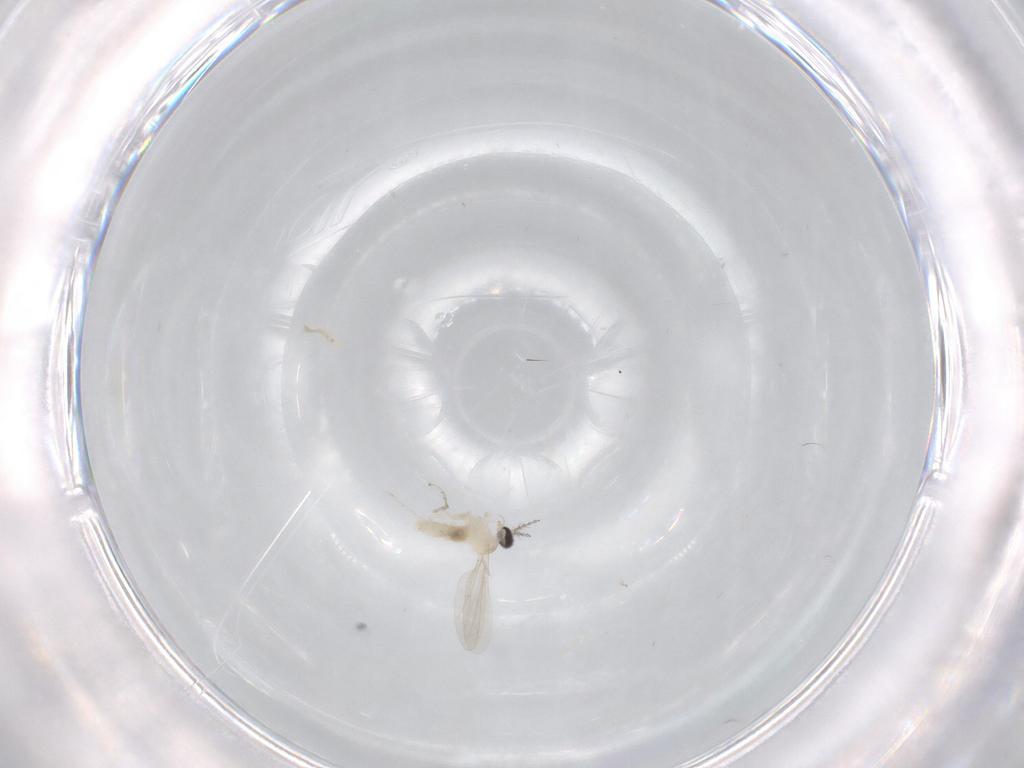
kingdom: Animalia
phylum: Arthropoda
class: Insecta
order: Diptera
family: Cecidomyiidae
